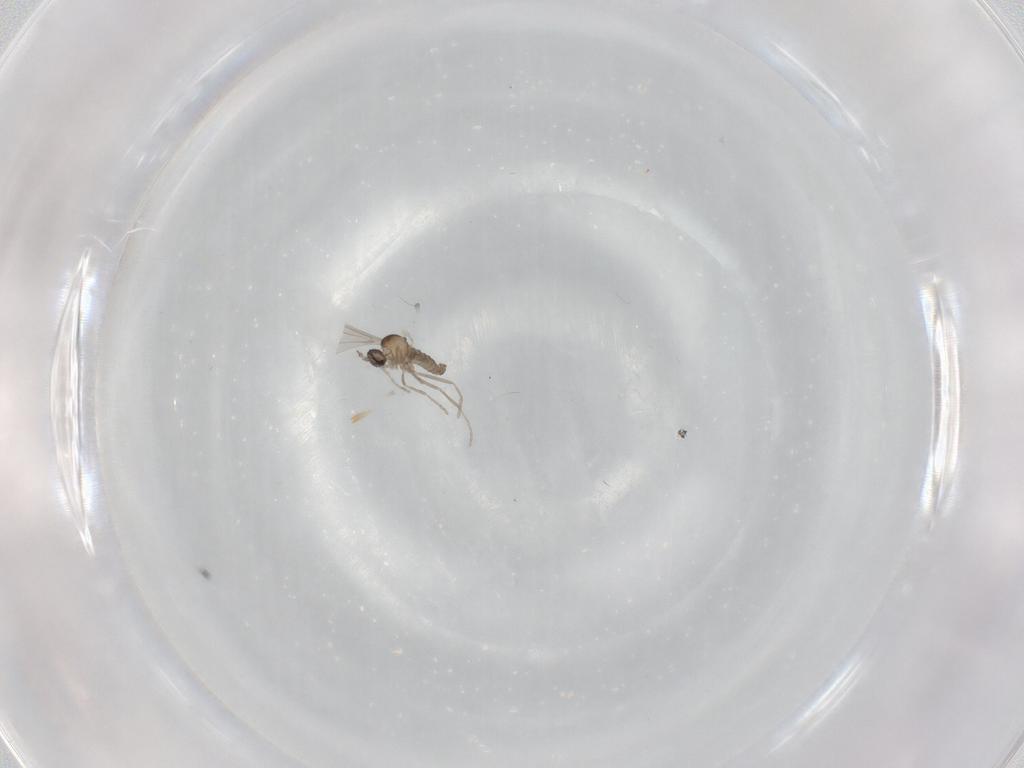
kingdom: Animalia
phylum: Arthropoda
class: Insecta
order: Diptera
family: Cecidomyiidae
